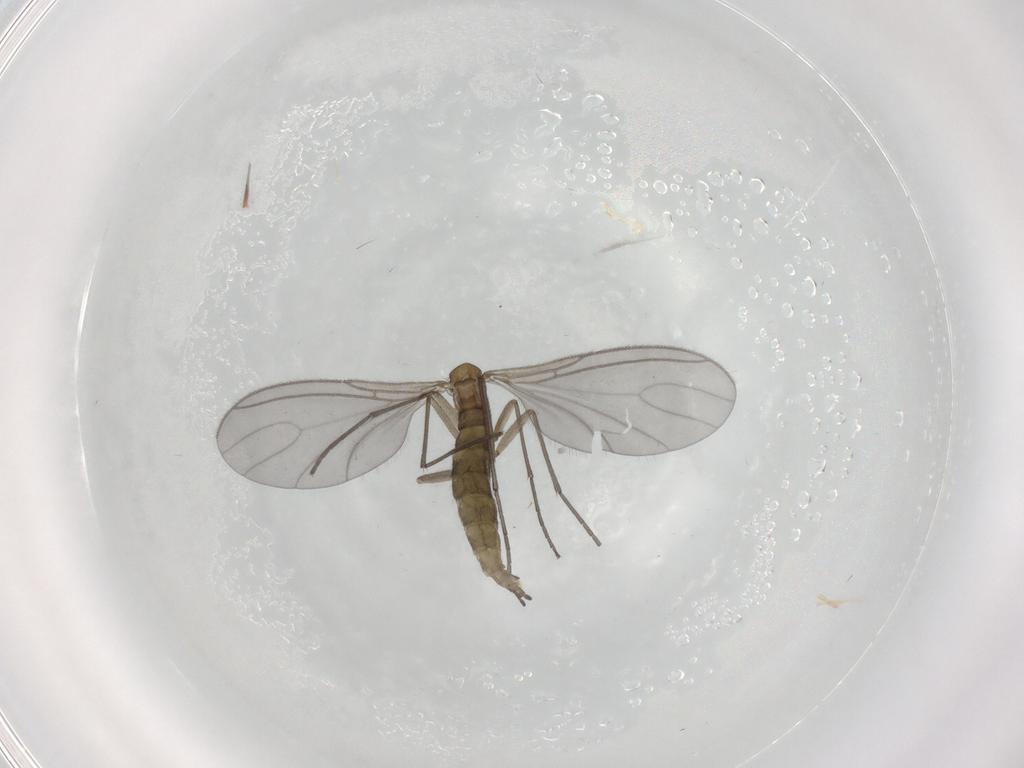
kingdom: Animalia
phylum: Arthropoda
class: Insecta
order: Diptera
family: Sciaridae
